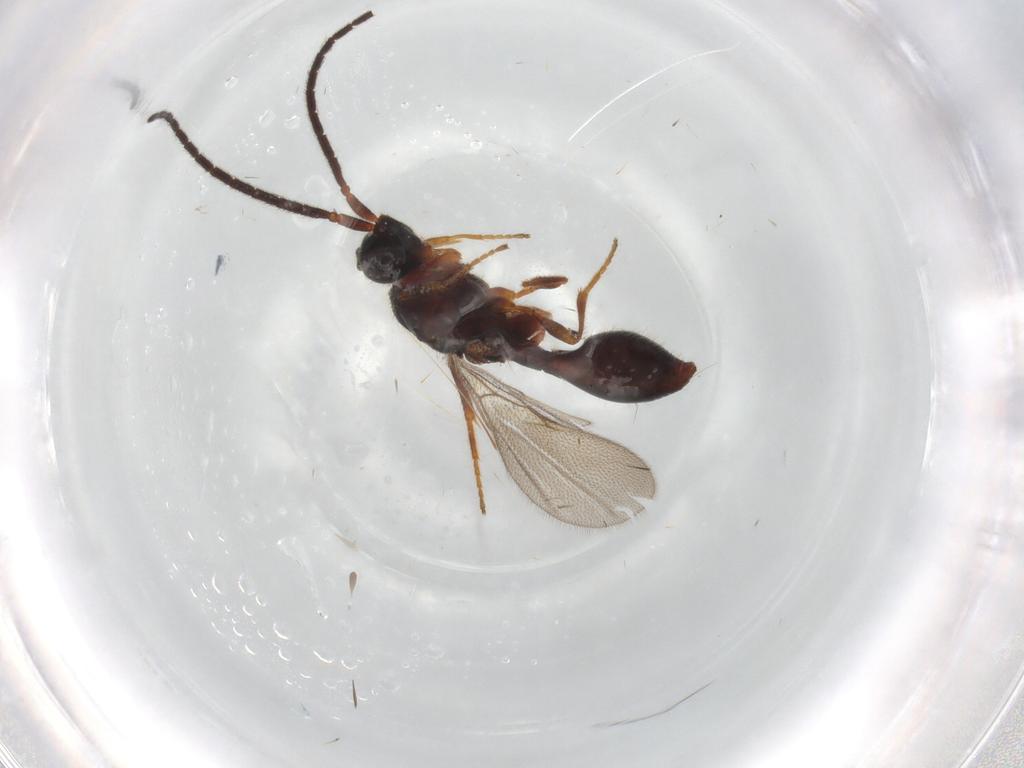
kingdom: Animalia
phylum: Arthropoda
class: Insecta
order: Hymenoptera
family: Diapriidae
